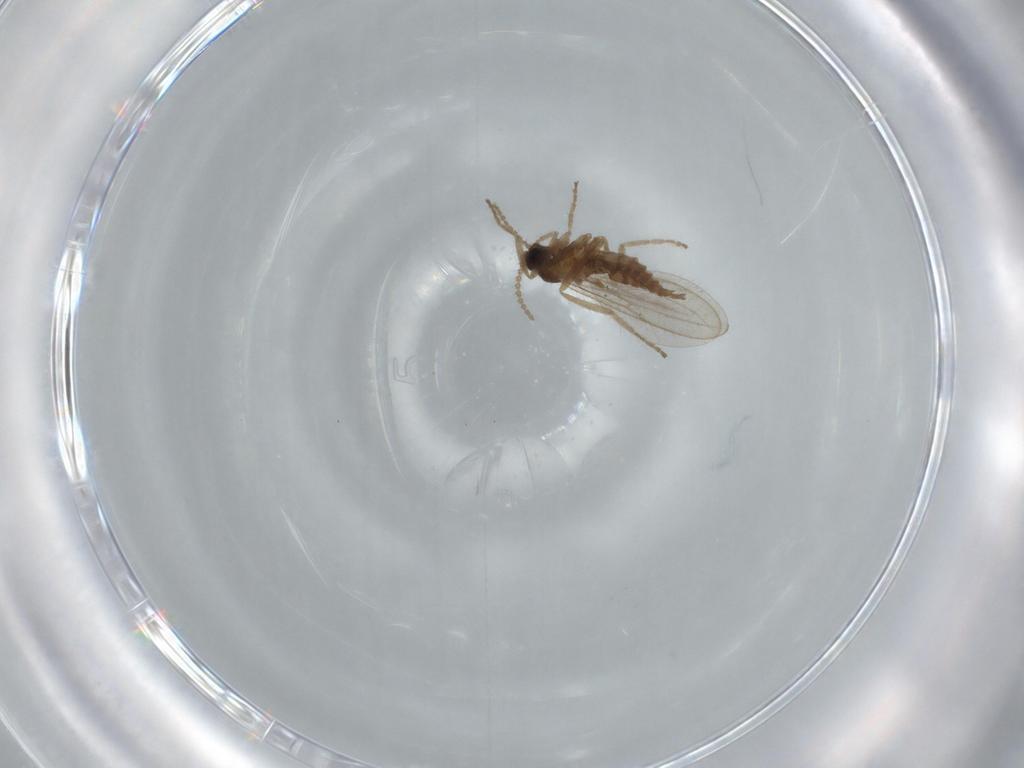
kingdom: Animalia
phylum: Arthropoda
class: Insecta
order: Diptera
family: Cecidomyiidae
